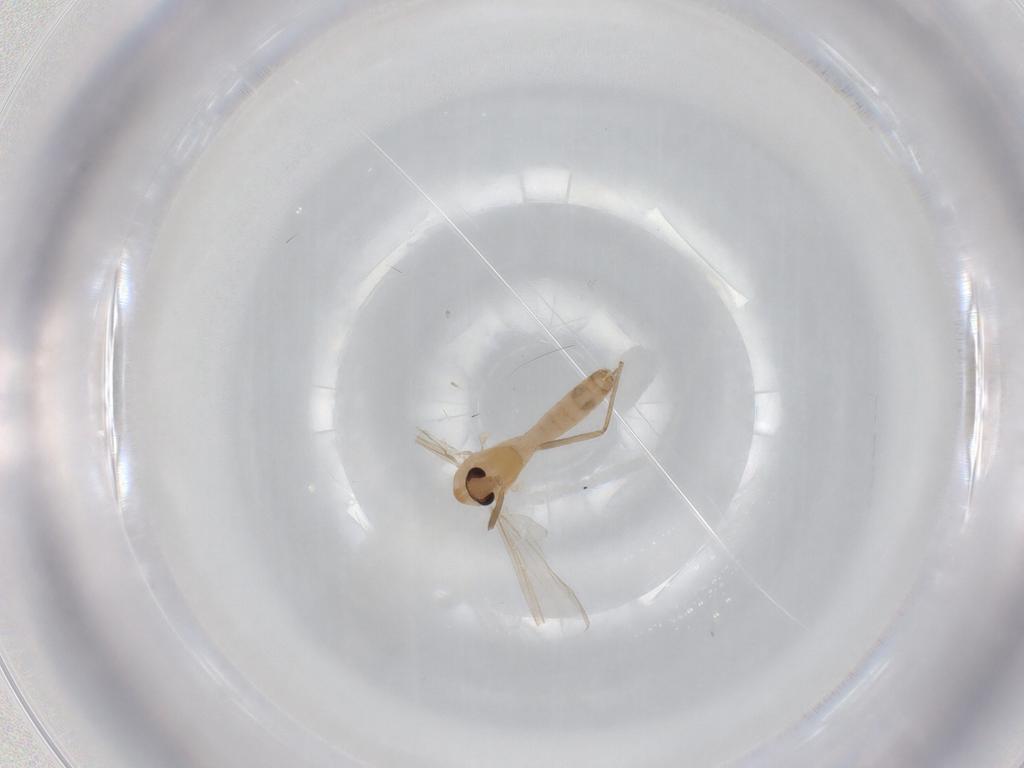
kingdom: Animalia
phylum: Arthropoda
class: Insecta
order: Diptera
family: Chironomidae
